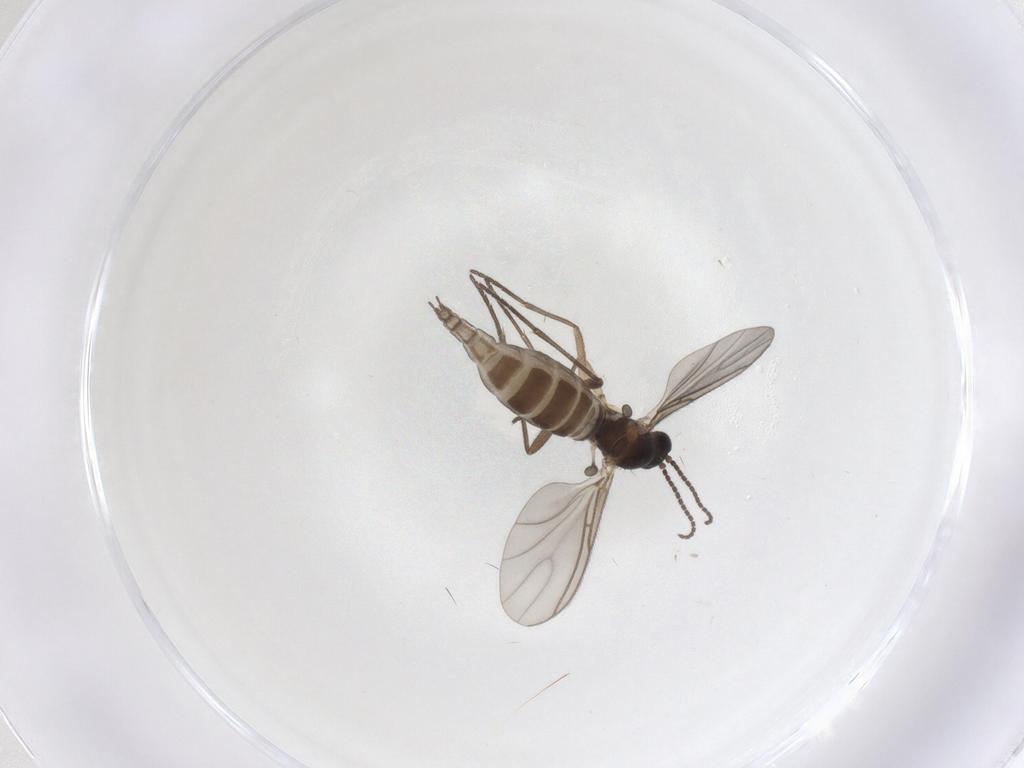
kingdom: Animalia
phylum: Arthropoda
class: Insecta
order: Diptera
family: Sciaridae
